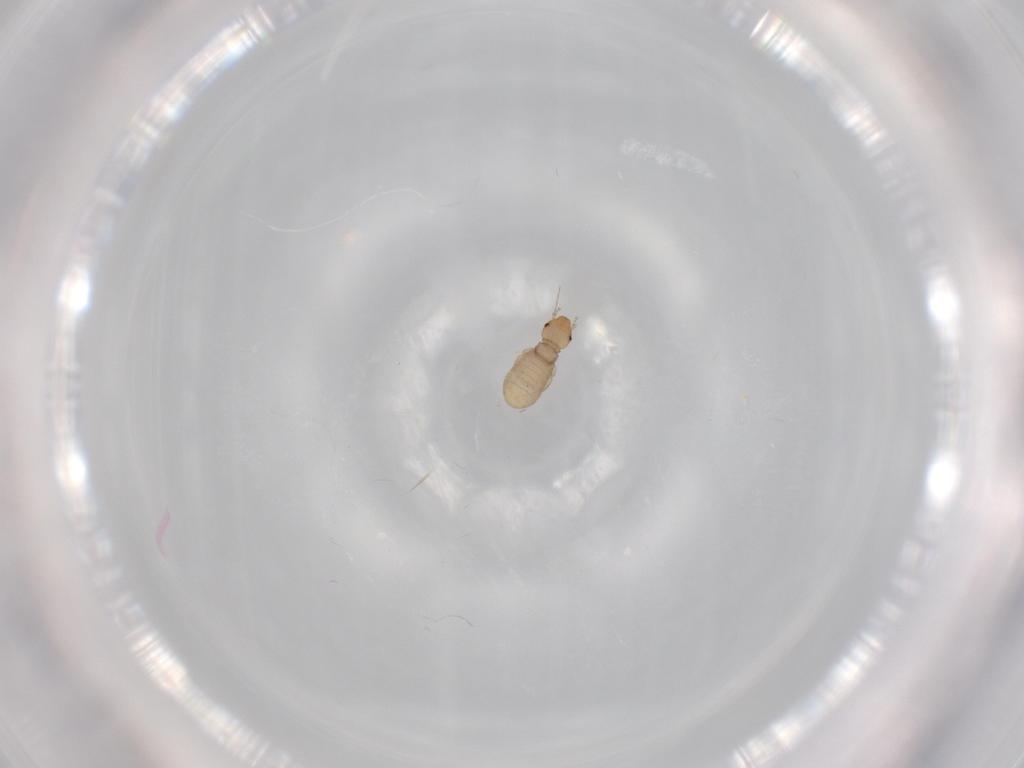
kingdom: Animalia
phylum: Arthropoda
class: Insecta
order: Psocodea
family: Liposcelididae
